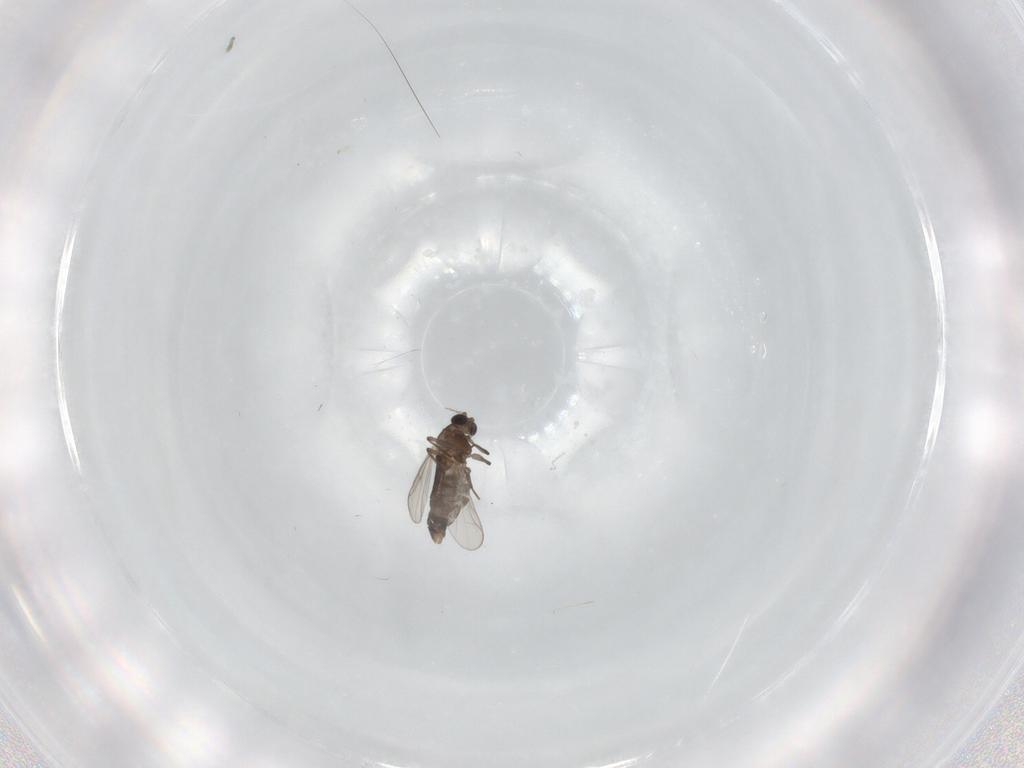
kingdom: Animalia
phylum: Arthropoda
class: Insecta
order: Diptera
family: Chironomidae
